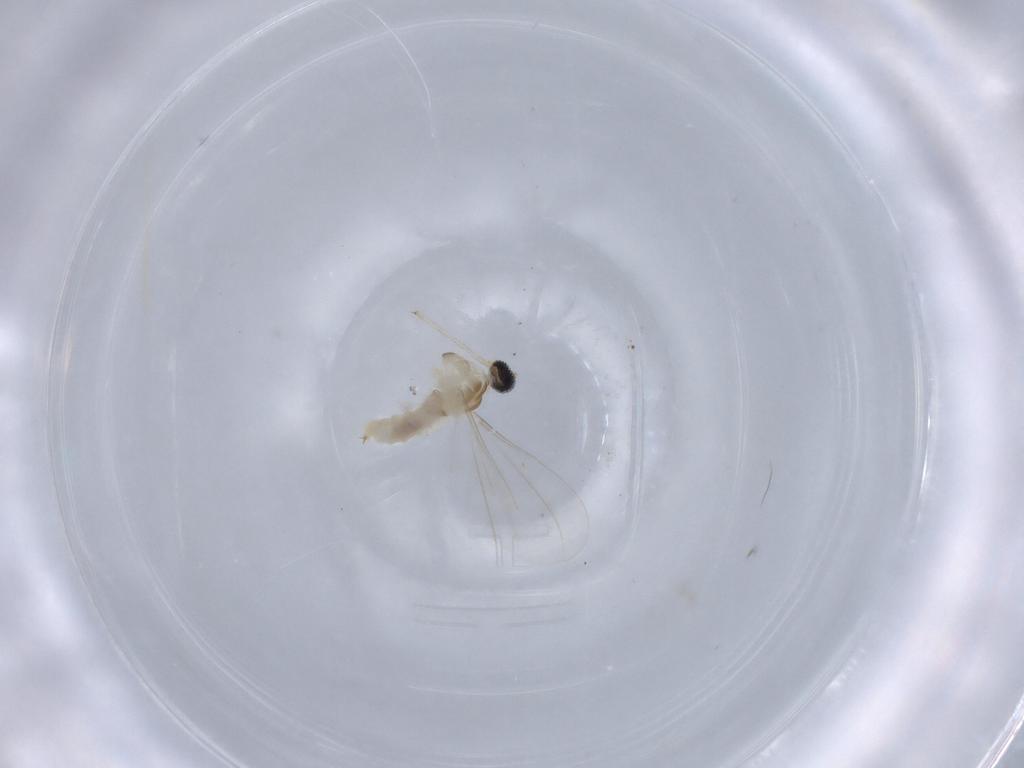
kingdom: Animalia
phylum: Arthropoda
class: Insecta
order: Diptera
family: Cecidomyiidae
